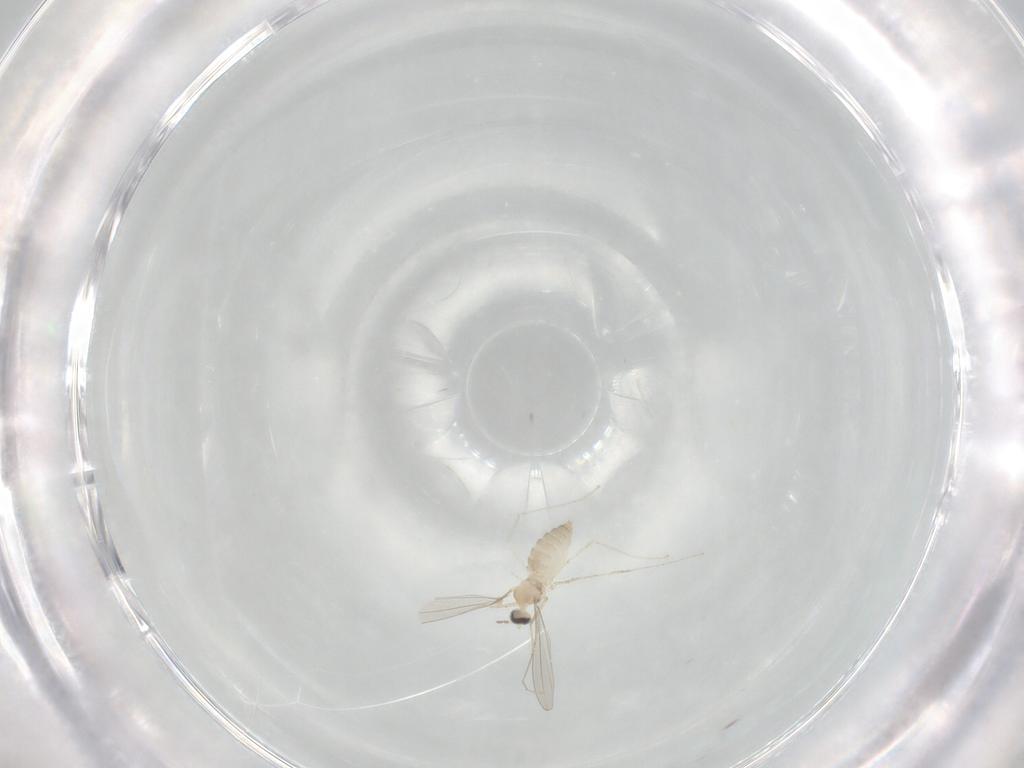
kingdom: Animalia
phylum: Arthropoda
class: Insecta
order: Diptera
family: Cecidomyiidae
